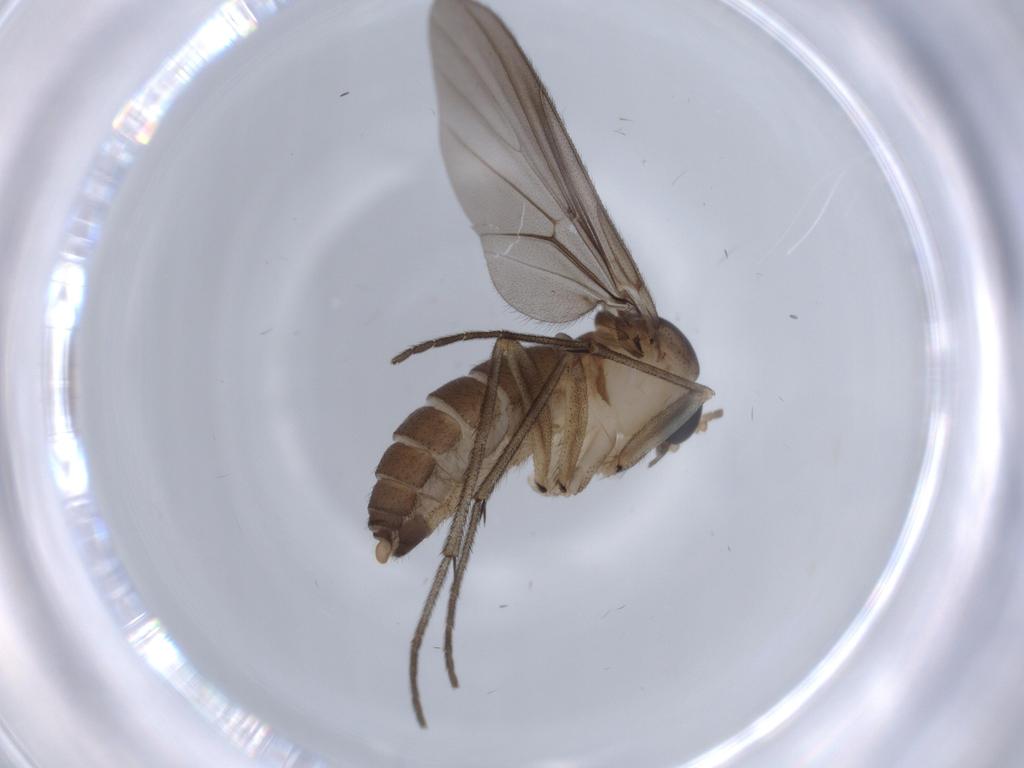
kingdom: Animalia
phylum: Arthropoda
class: Insecta
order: Diptera
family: Diadocidiidae
